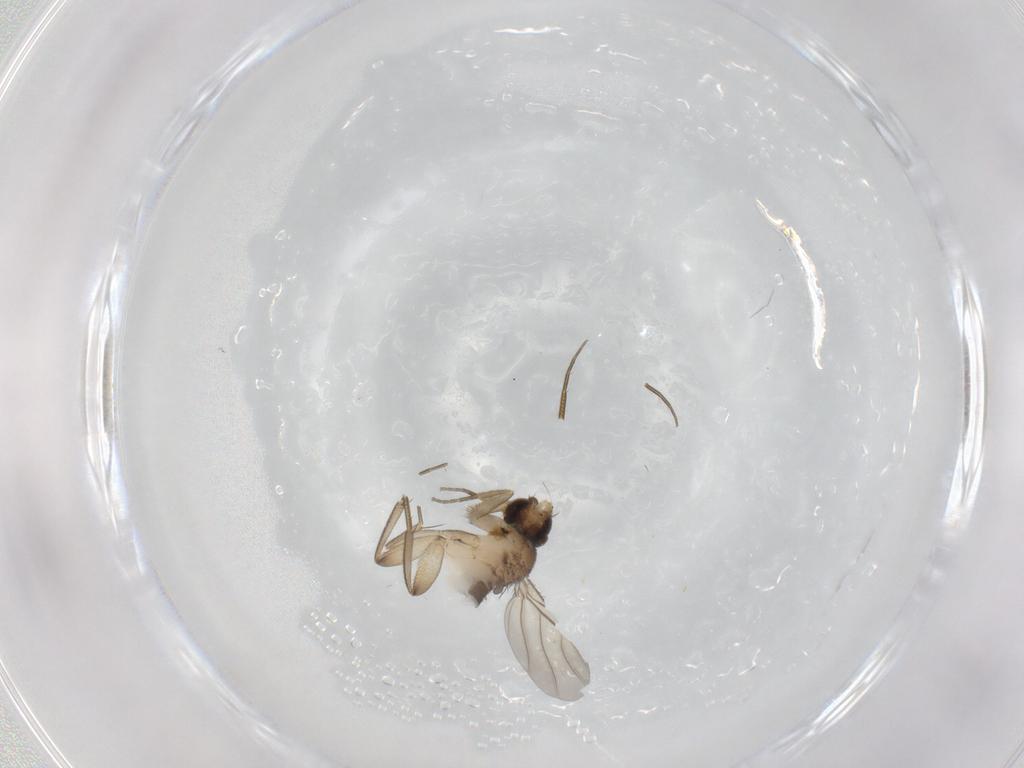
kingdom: Animalia
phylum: Arthropoda
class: Insecta
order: Diptera
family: Phoridae
